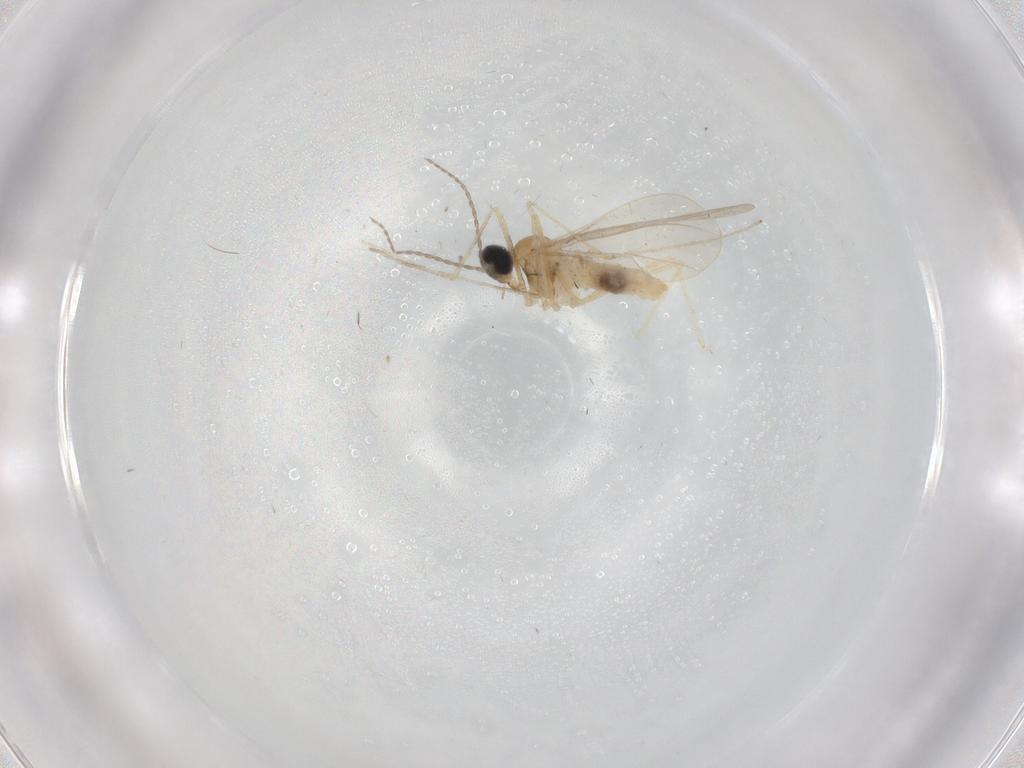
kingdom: Animalia
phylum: Arthropoda
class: Insecta
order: Diptera
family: Cecidomyiidae
